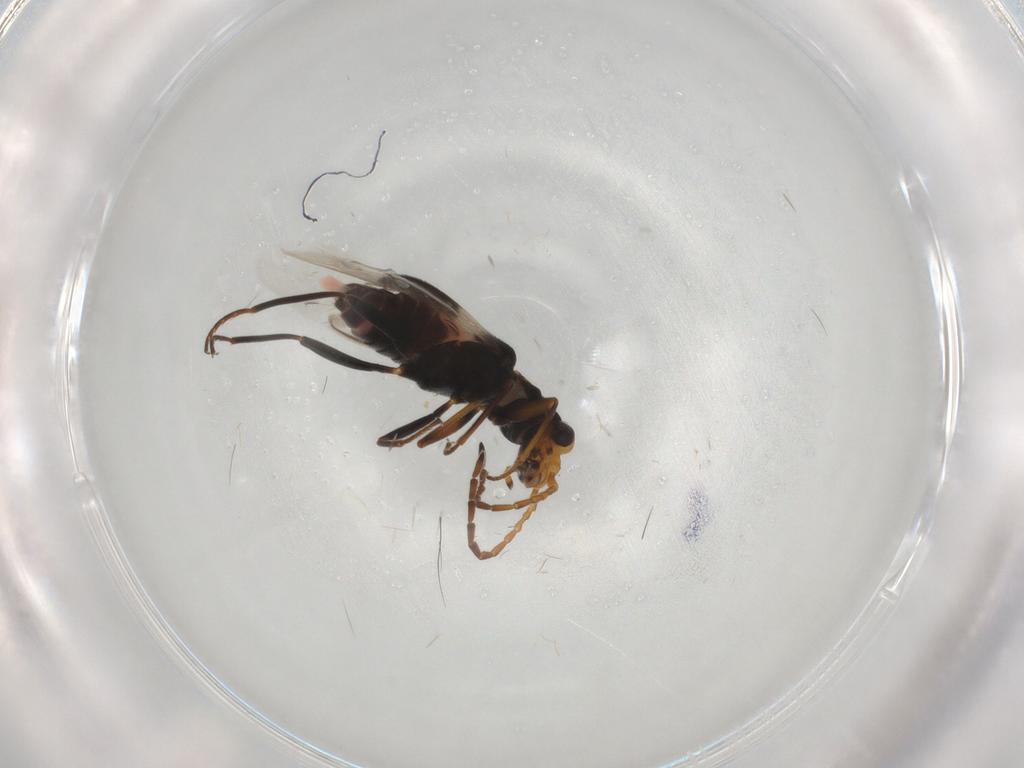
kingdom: Animalia
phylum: Arthropoda
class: Insecta
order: Coleoptera
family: Melyridae
